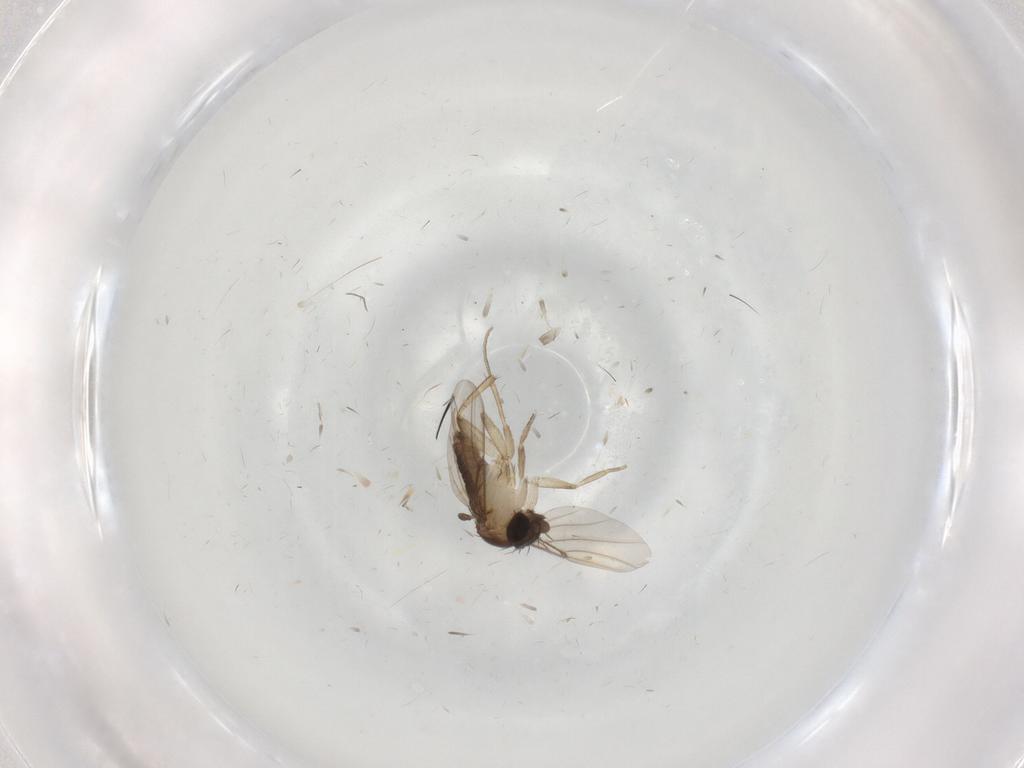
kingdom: Animalia
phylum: Arthropoda
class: Insecta
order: Diptera
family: Phoridae
